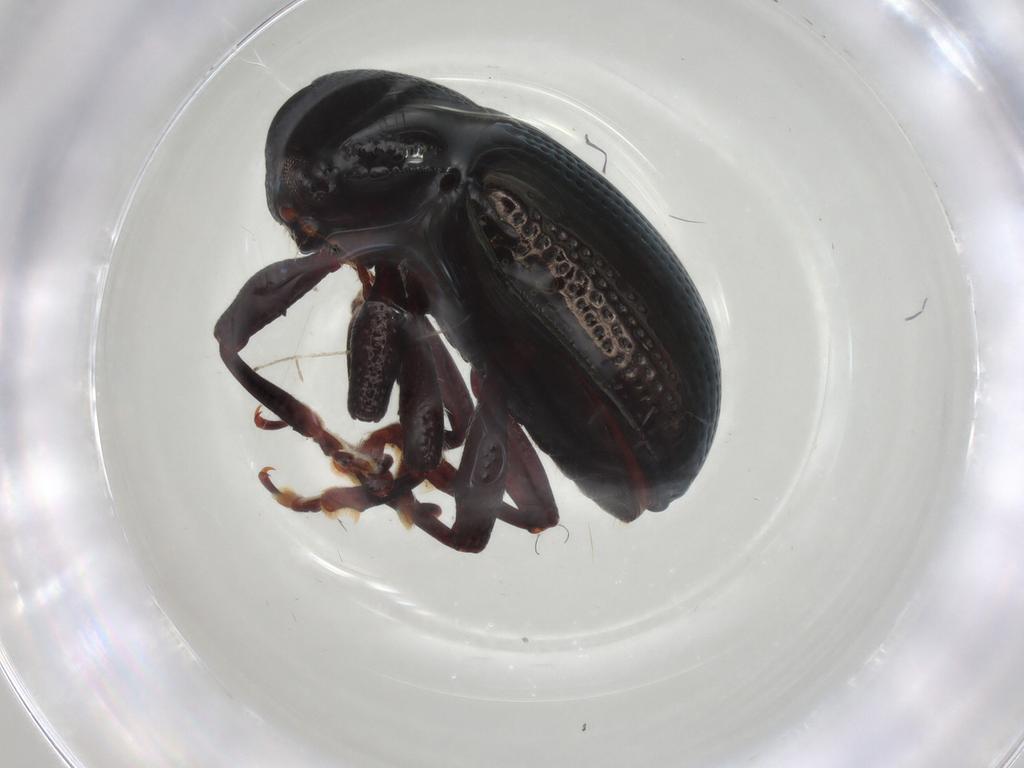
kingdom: Animalia
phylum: Arthropoda
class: Insecta
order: Coleoptera
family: Chrysomelidae
